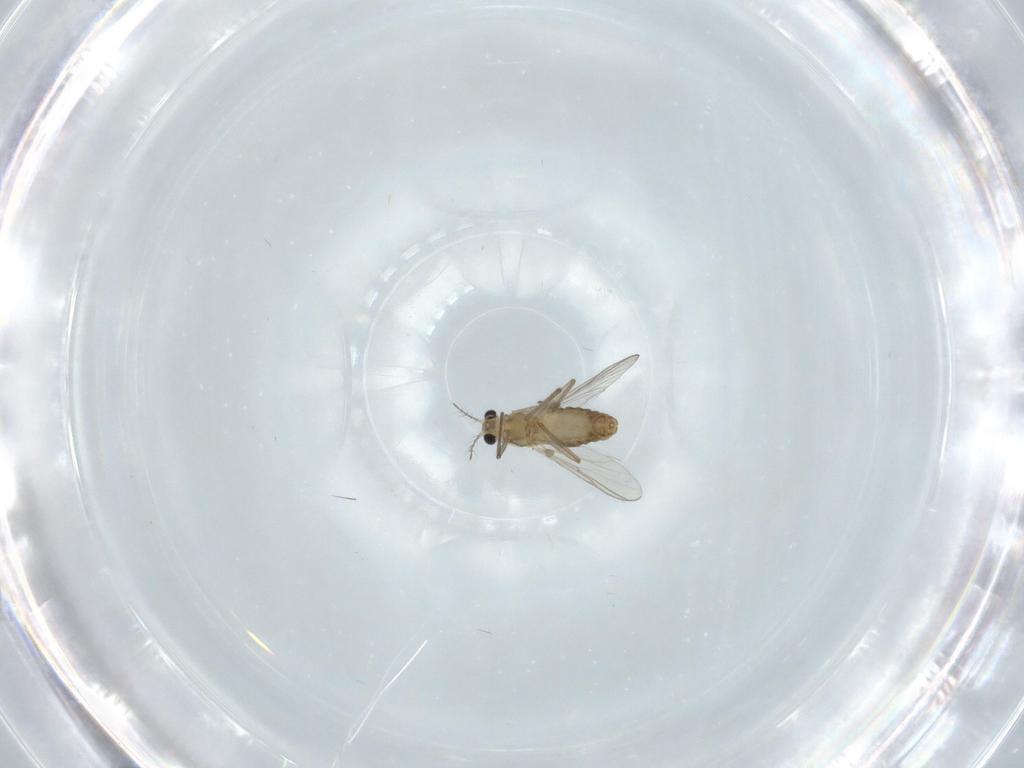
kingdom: Animalia
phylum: Arthropoda
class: Insecta
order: Diptera
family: Chironomidae
